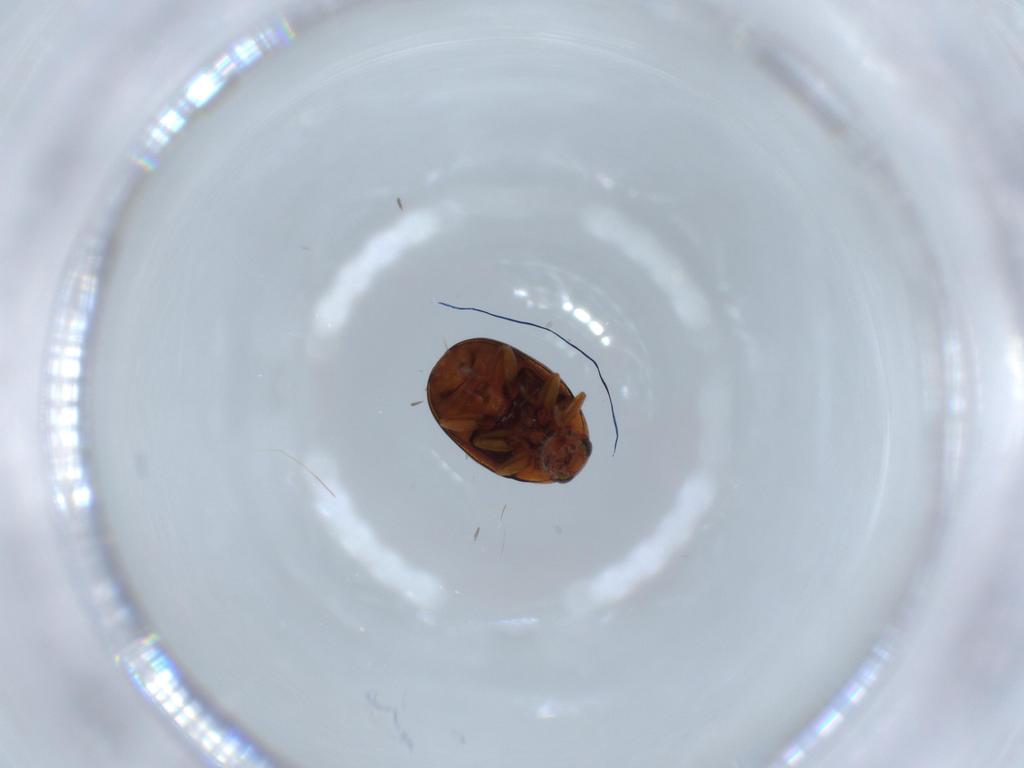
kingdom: Animalia
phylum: Arthropoda
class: Insecta
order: Coleoptera
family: Chrysomelidae
